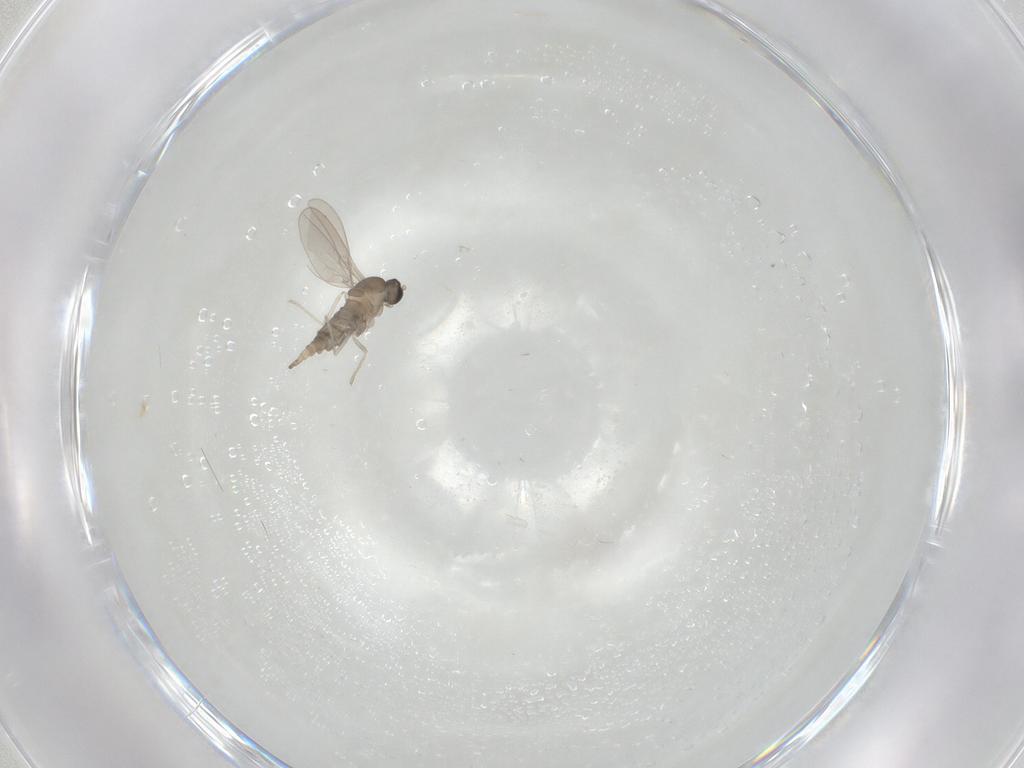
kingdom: Animalia
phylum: Arthropoda
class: Insecta
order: Diptera
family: Cecidomyiidae
